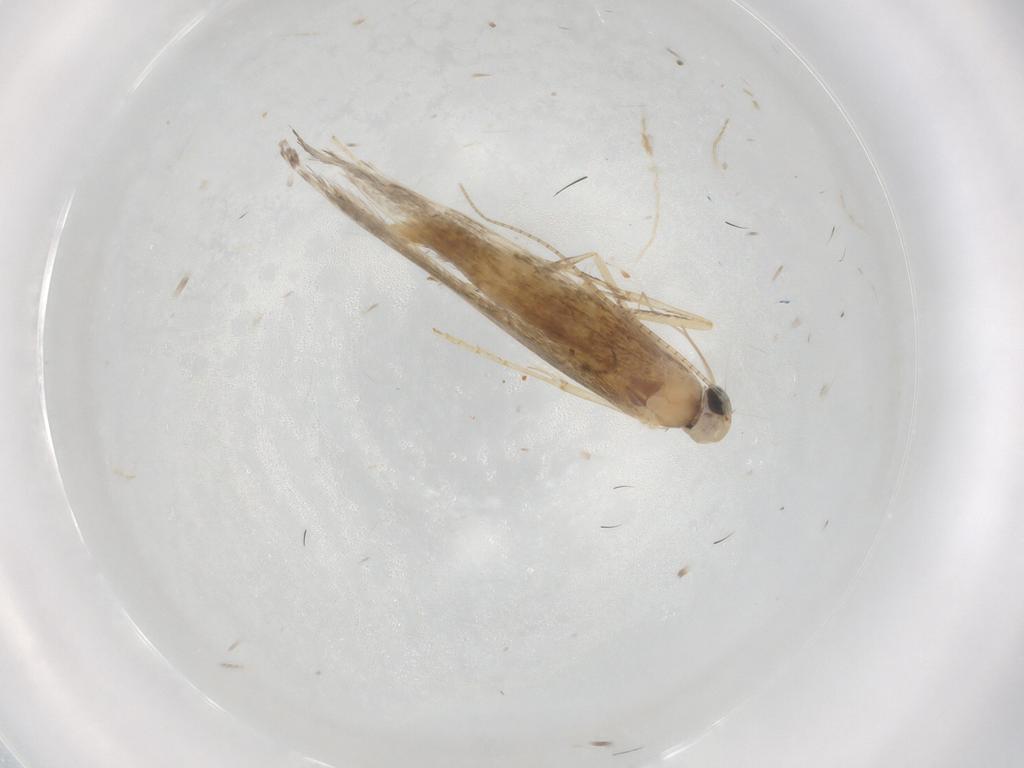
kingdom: Animalia
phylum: Arthropoda
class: Insecta
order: Lepidoptera
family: Gracillariidae
